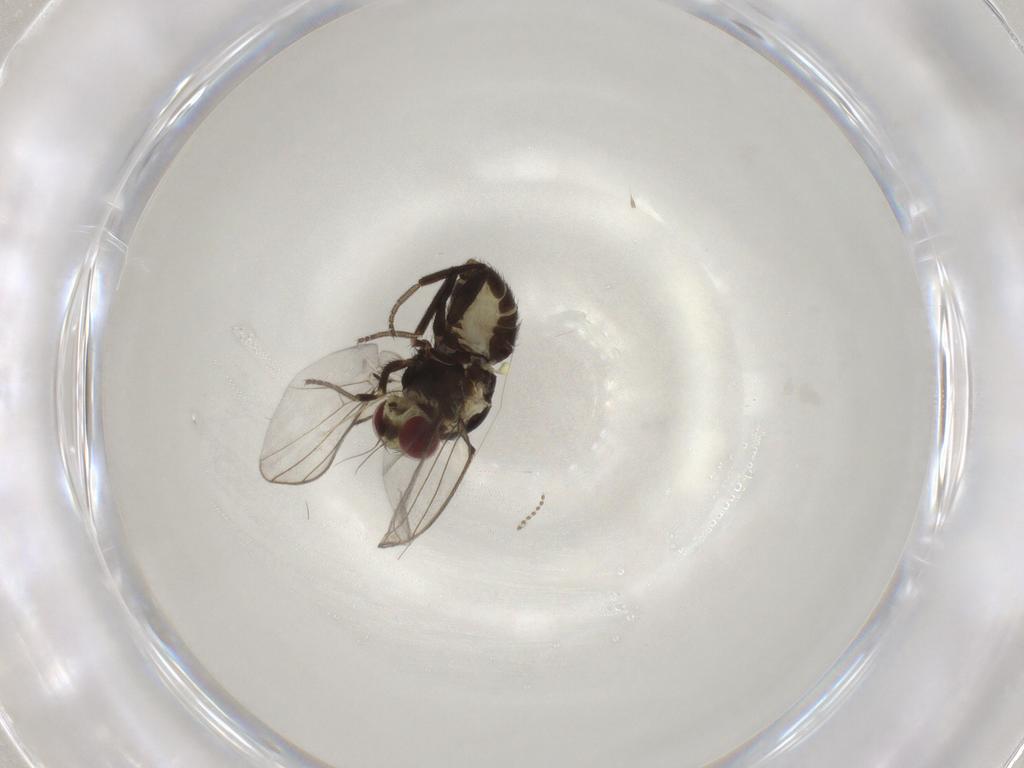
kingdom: Animalia
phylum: Arthropoda
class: Insecta
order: Diptera
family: Agromyzidae
